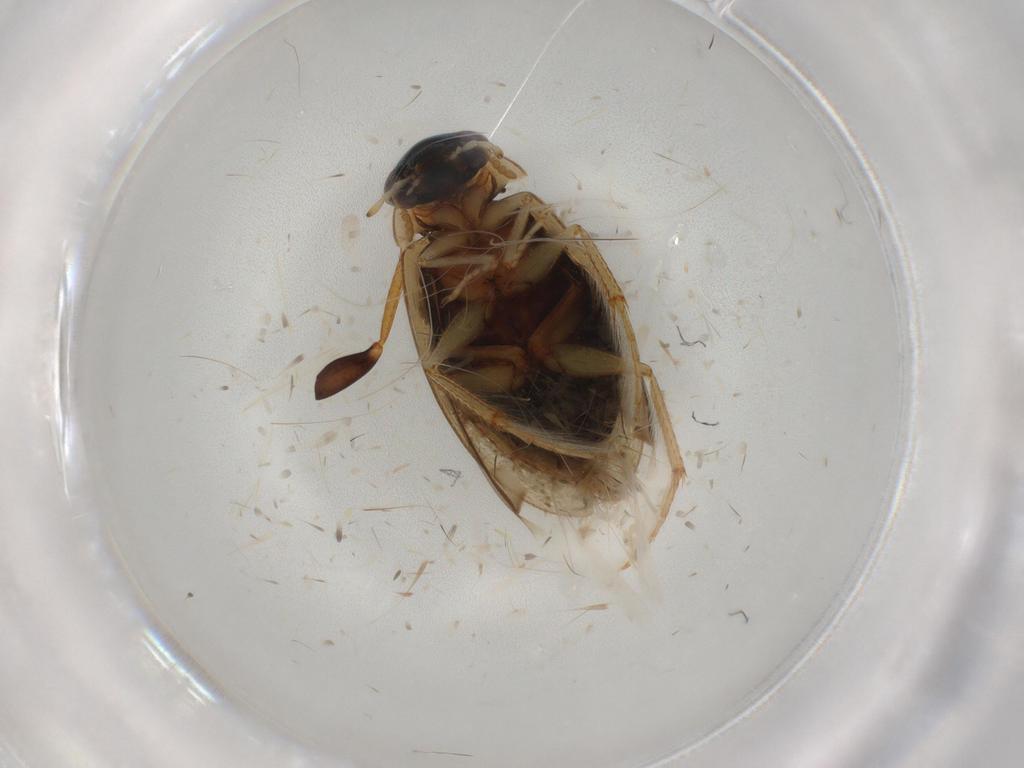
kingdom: Animalia
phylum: Arthropoda
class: Insecta
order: Coleoptera
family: Hydrophilidae
